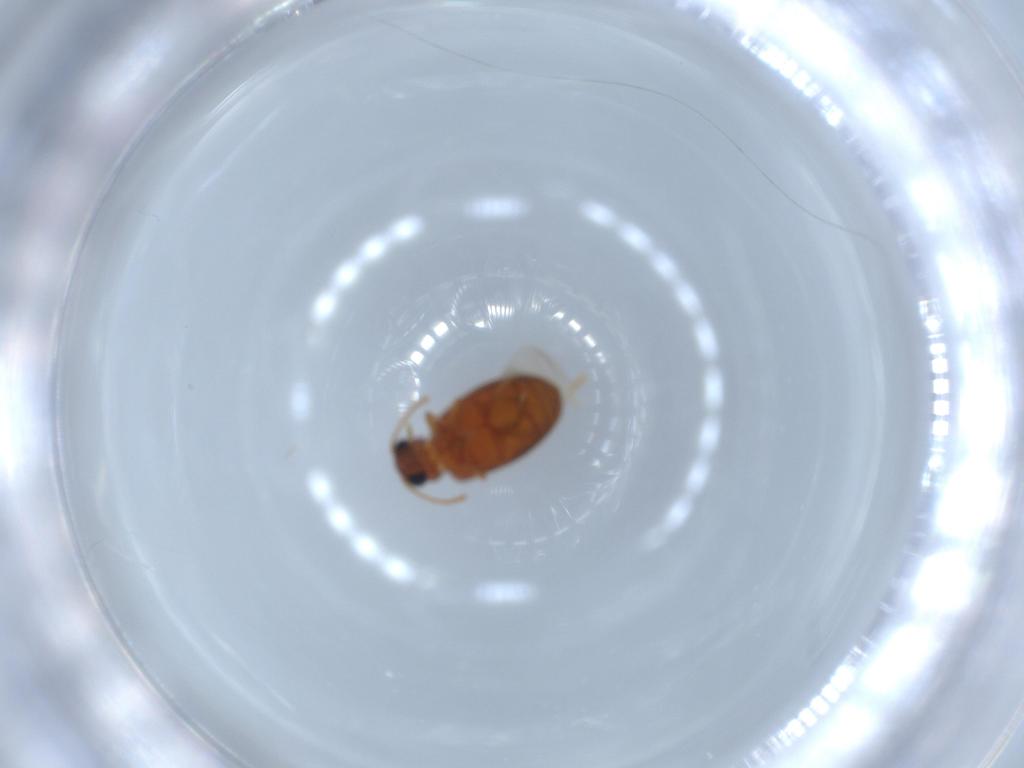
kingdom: Animalia
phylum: Arthropoda
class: Insecta
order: Coleoptera
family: Aderidae
